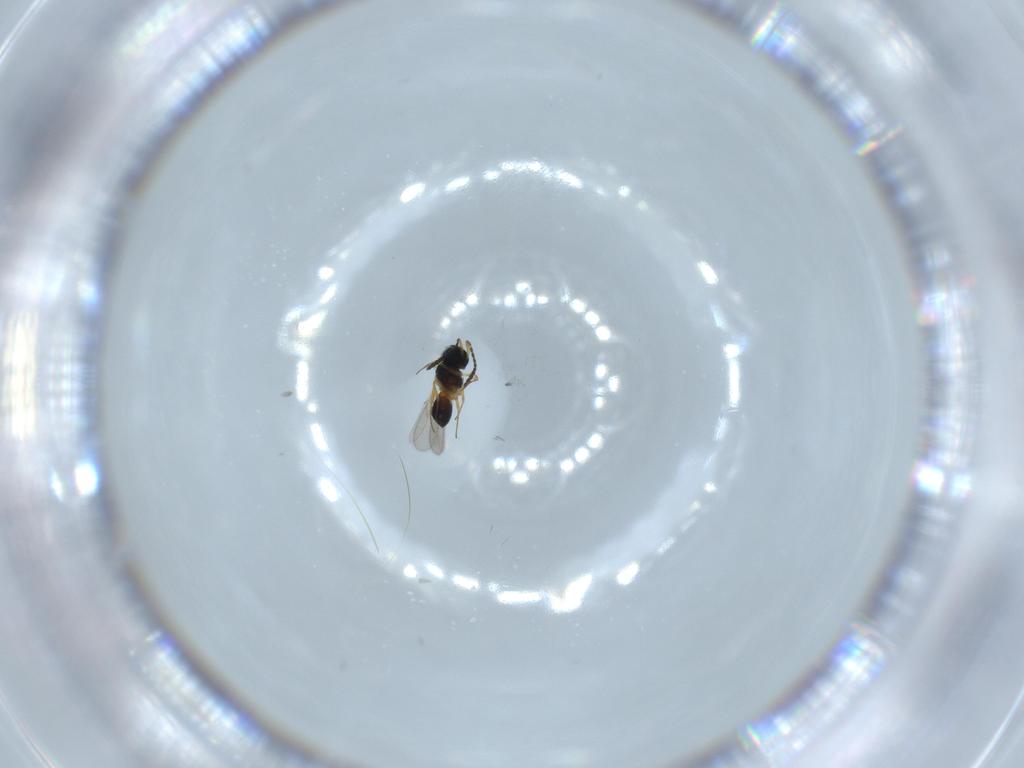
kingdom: Animalia
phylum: Arthropoda
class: Insecta
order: Hymenoptera
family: Scelionidae
